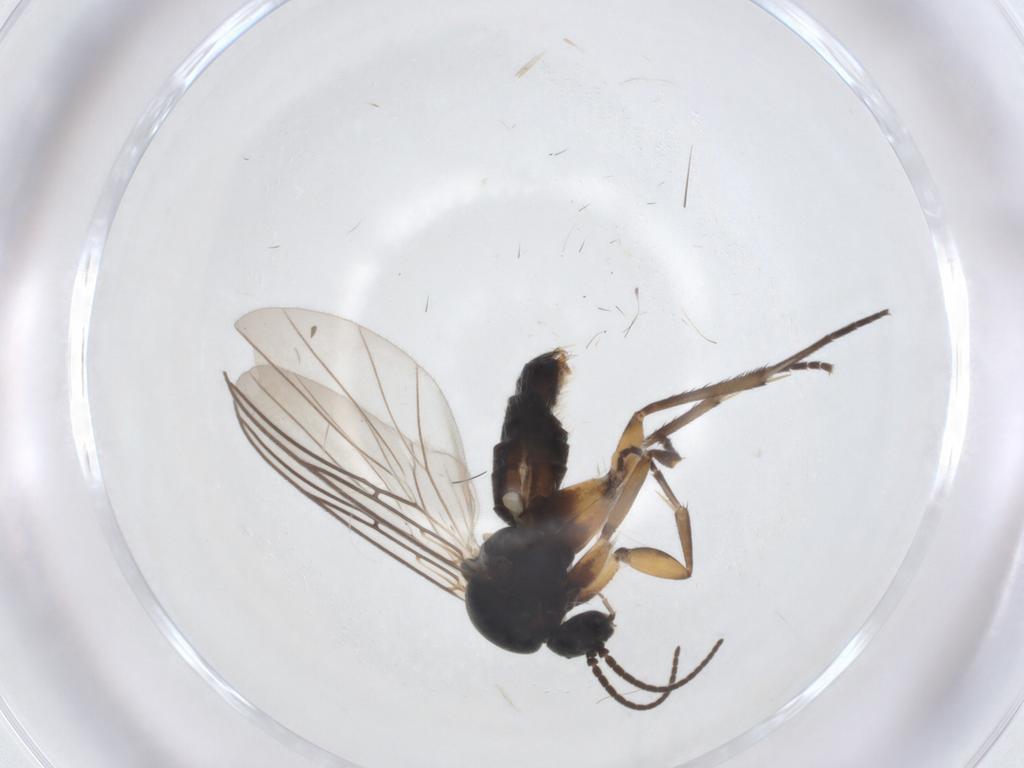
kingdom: Animalia
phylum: Arthropoda
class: Insecta
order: Diptera
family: Mycetophilidae
